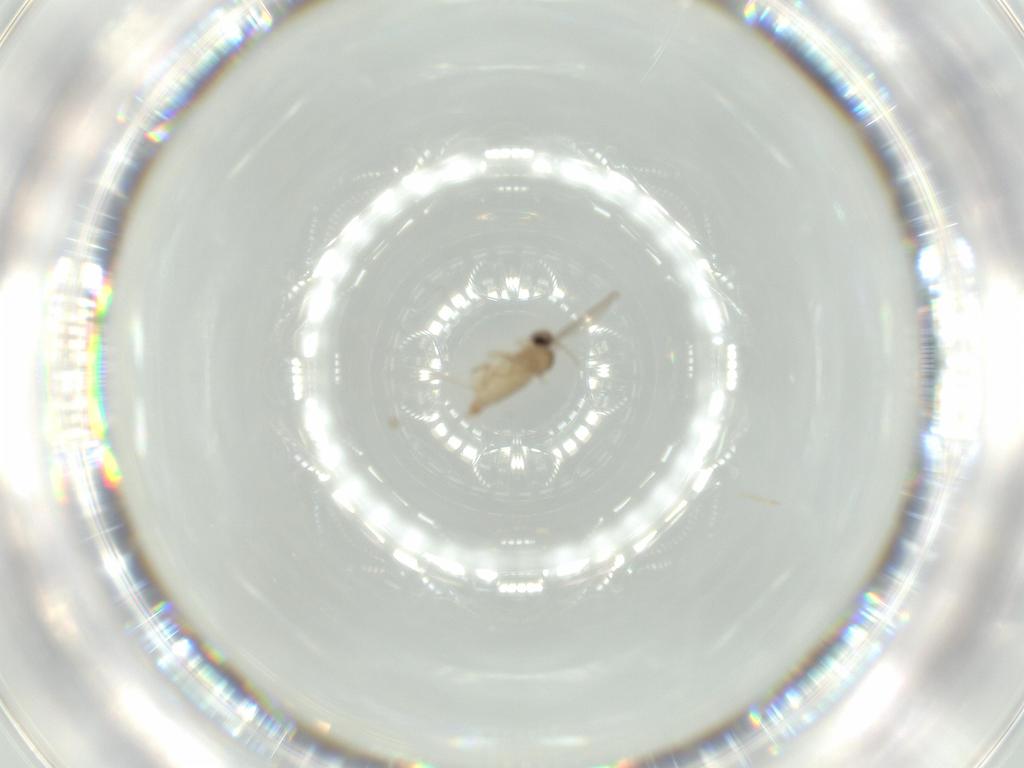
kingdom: Animalia
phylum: Arthropoda
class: Insecta
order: Diptera
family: Cecidomyiidae
